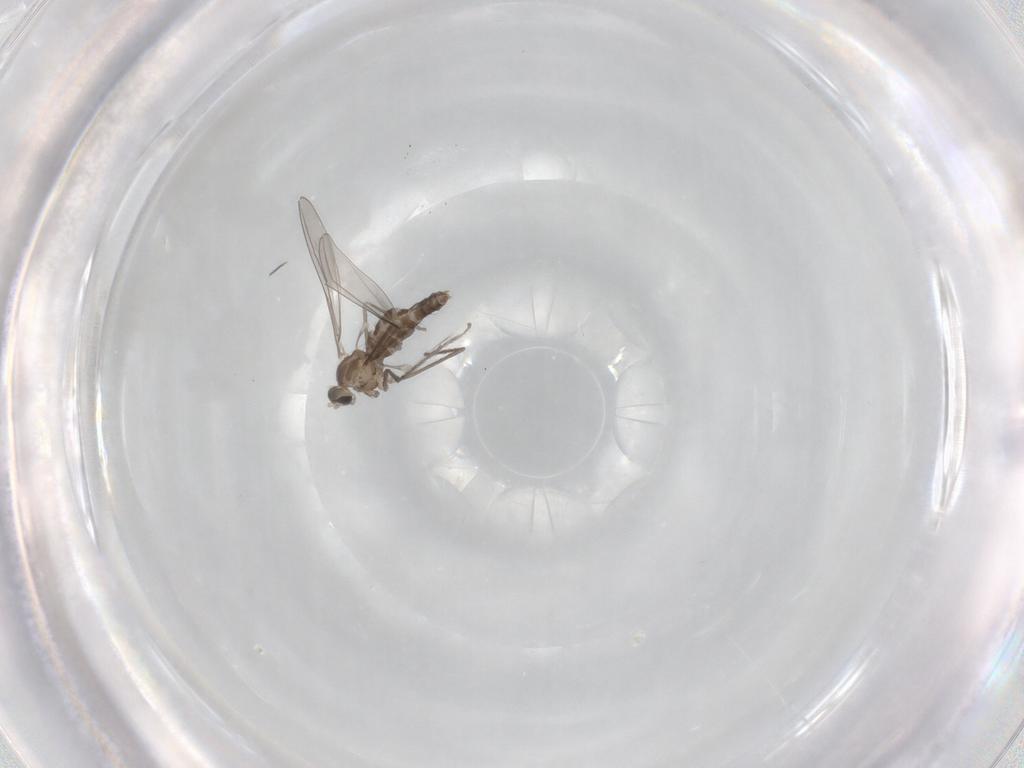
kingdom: Animalia
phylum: Arthropoda
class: Insecta
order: Diptera
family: Cecidomyiidae
